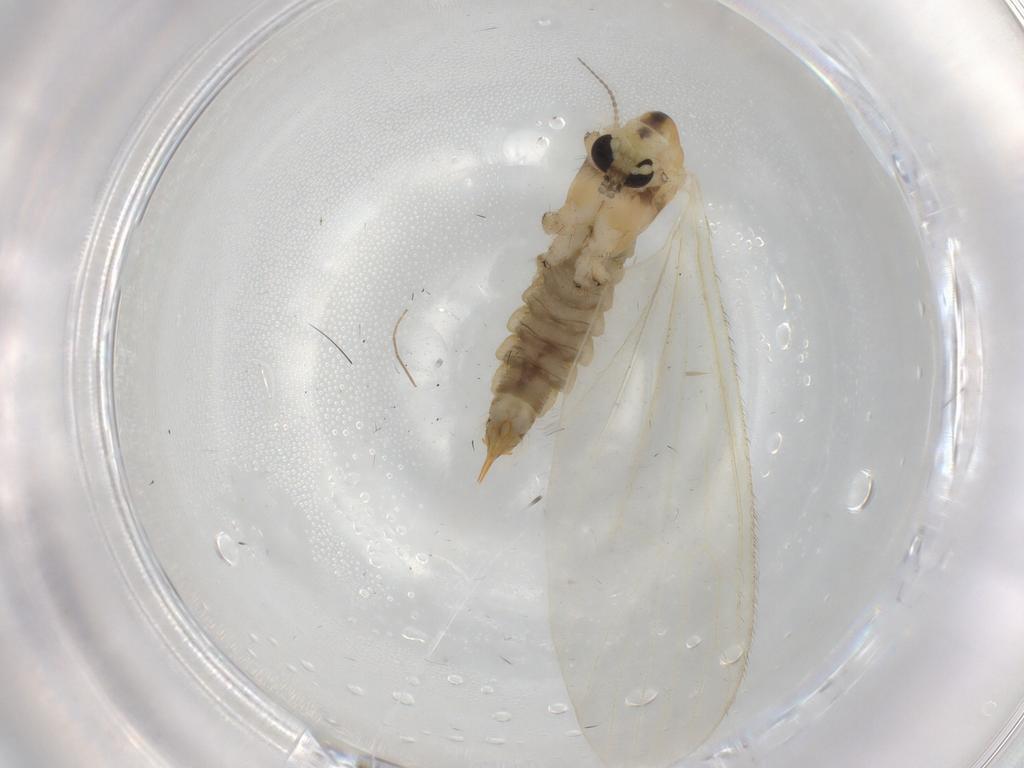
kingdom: Animalia
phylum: Arthropoda
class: Insecta
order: Diptera
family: Limoniidae
